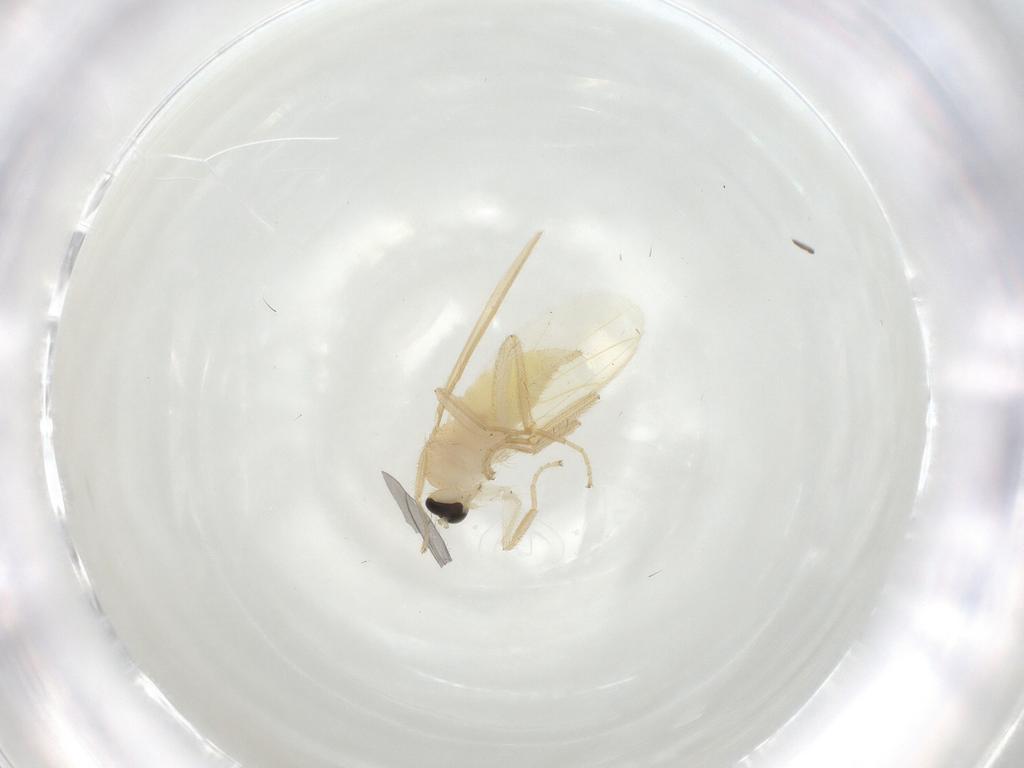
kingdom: Animalia
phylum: Arthropoda
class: Insecta
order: Diptera
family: Hybotidae
